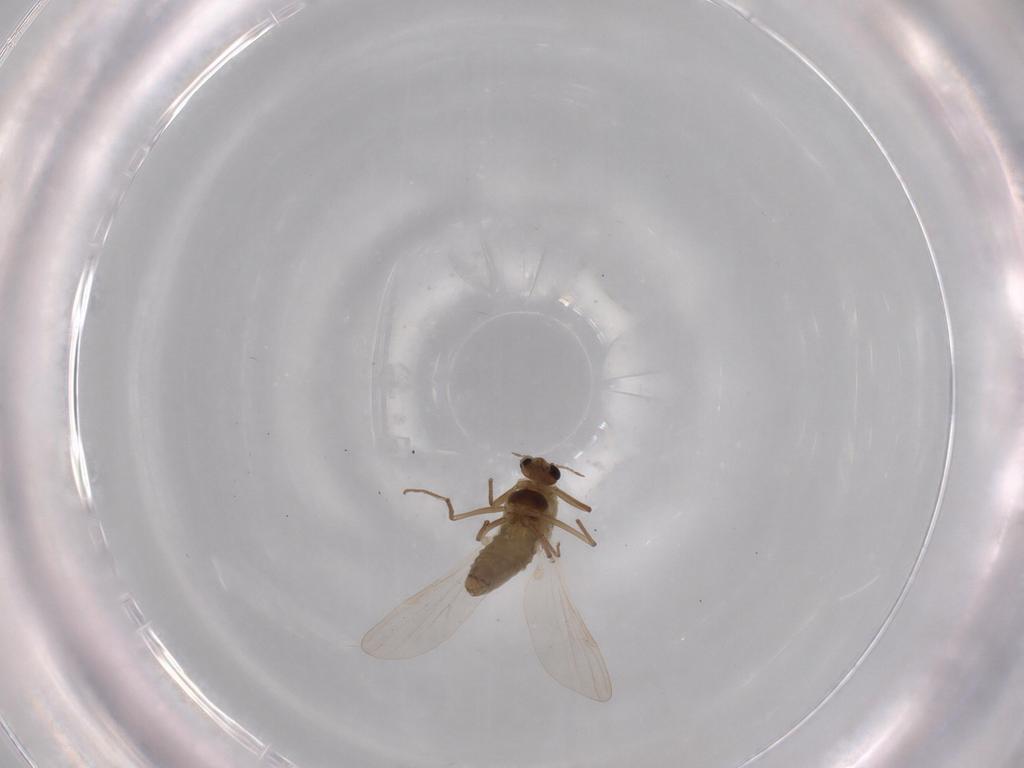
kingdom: Animalia
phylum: Arthropoda
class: Insecta
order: Diptera
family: Chironomidae
